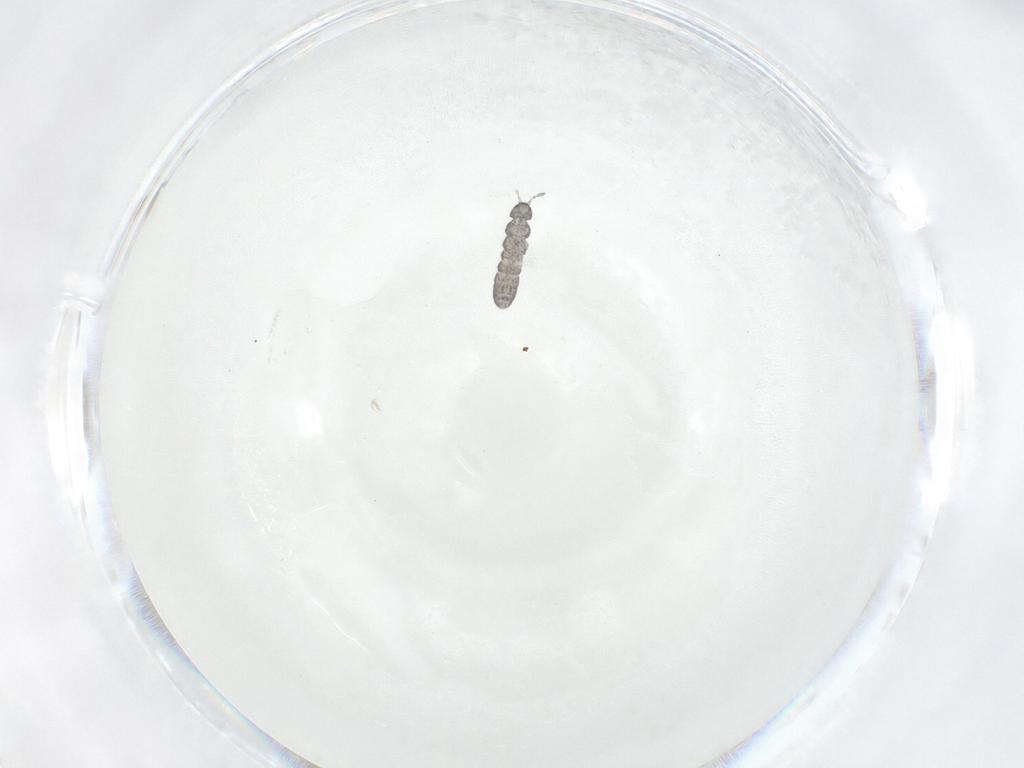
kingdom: Animalia
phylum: Arthropoda
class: Collembola
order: Entomobryomorpha
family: Isotomidae
